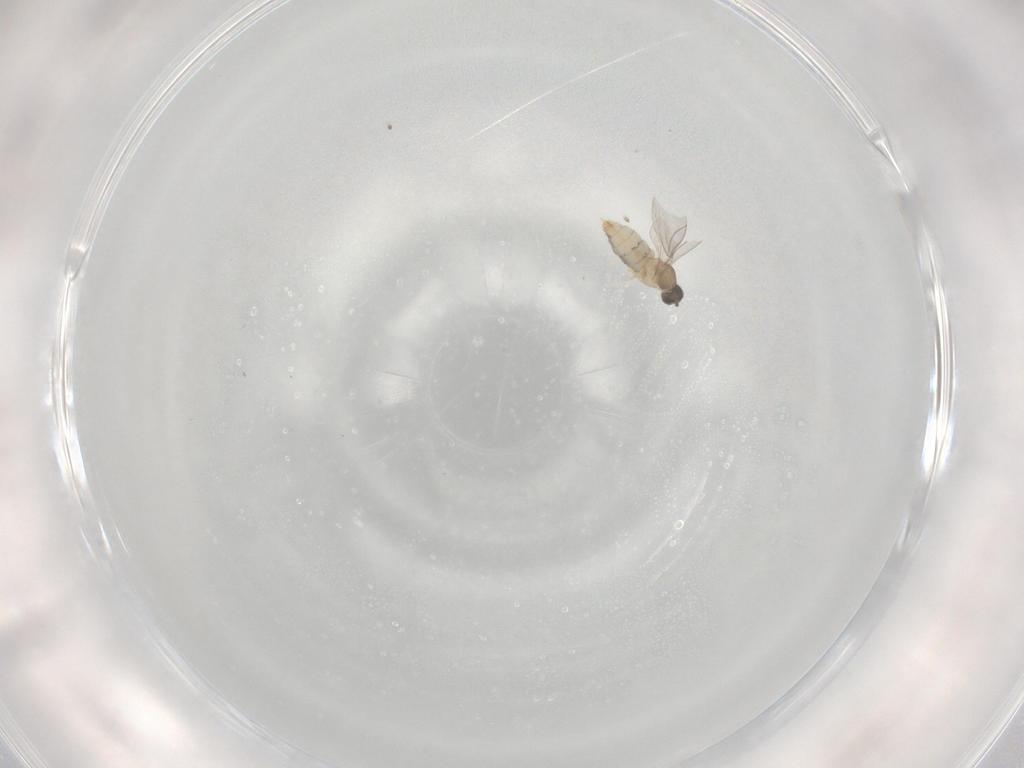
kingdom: Animalia
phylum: Arthropoda
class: Insecta
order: Diptera
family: Cecidomyiidae
